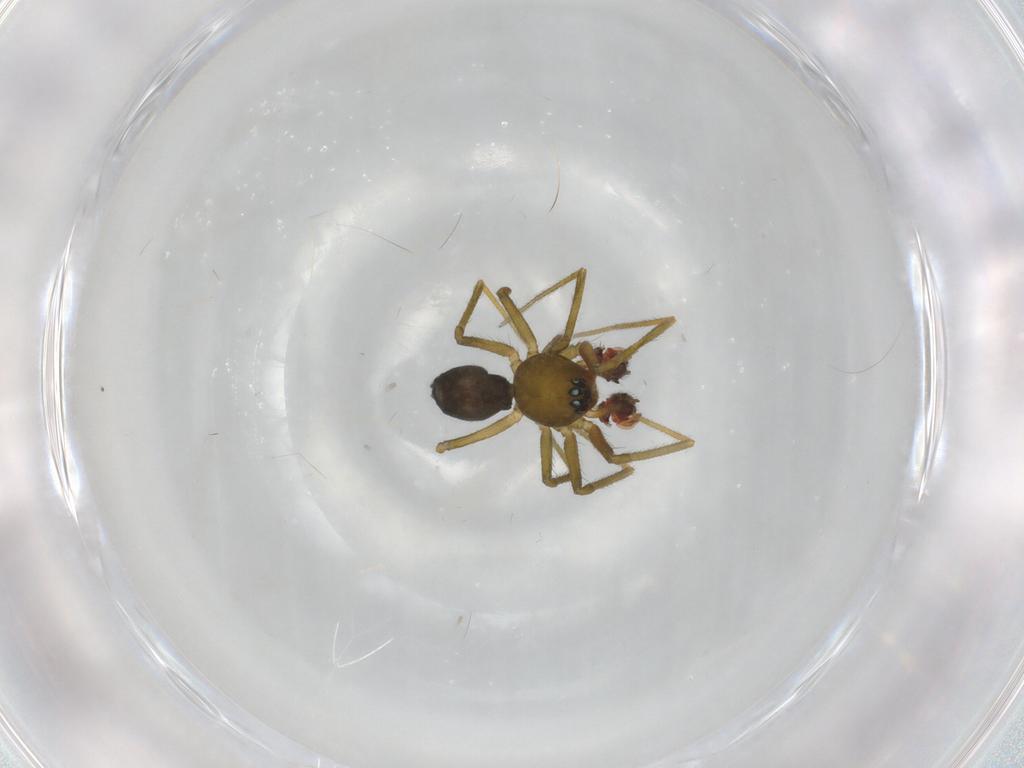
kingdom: Animalia
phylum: Arthropoda
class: Arachnida
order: Araneae
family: Linyphiidae
